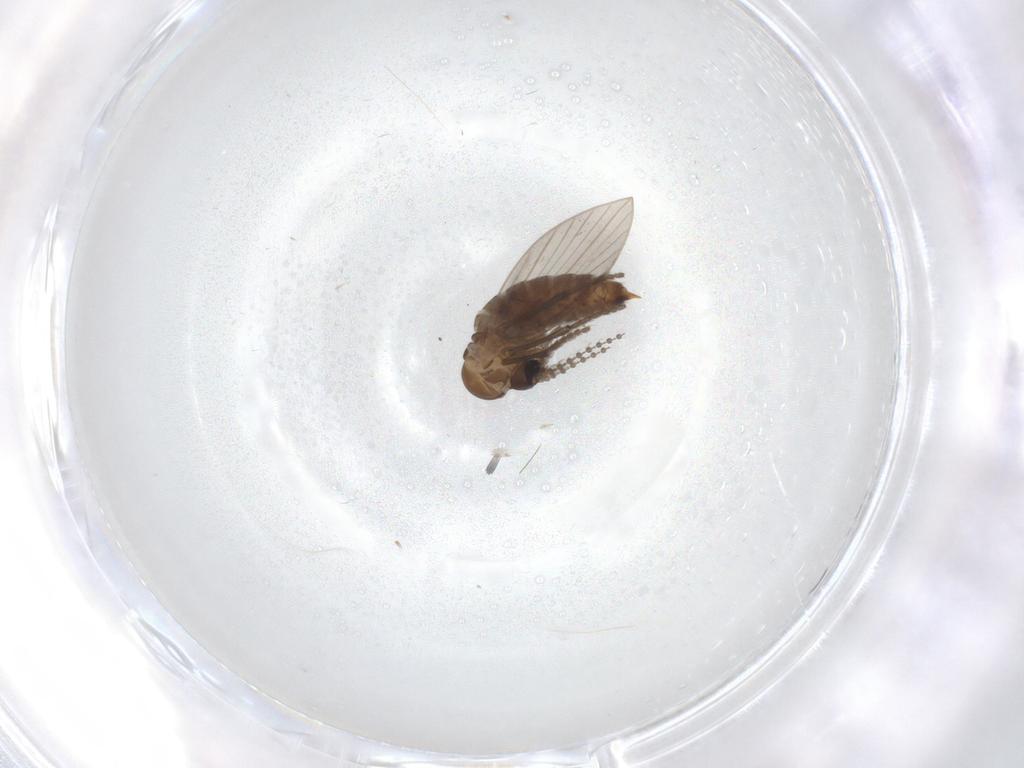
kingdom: Animalia
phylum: Arthropoda
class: Insecta
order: Diptera
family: Psychodidae
